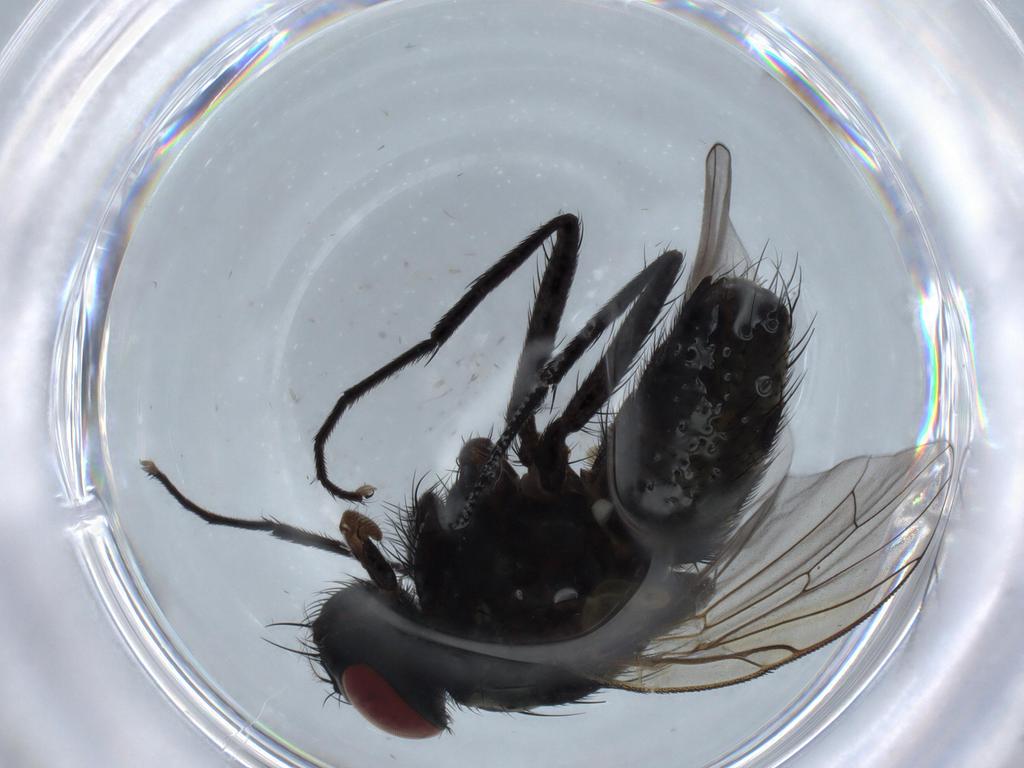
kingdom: Animalia
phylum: Arthropoda
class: Insecta
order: Diptera
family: Muscidae
